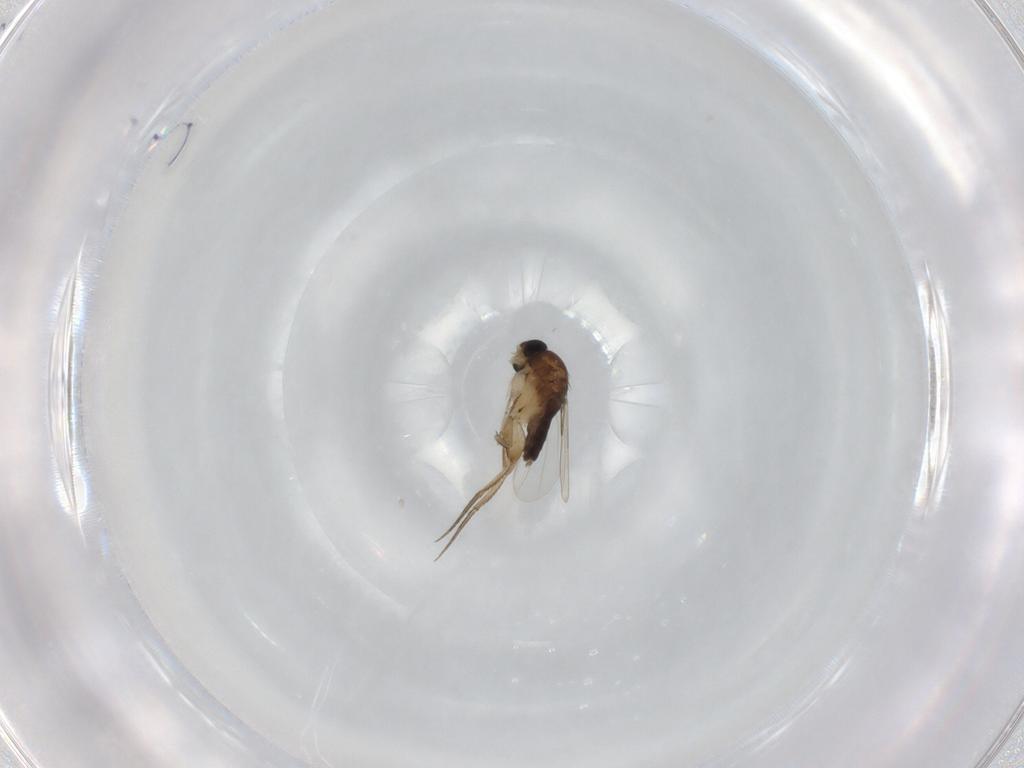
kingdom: Animalia
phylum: Arthropoda
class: Insecta
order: Diptera
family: Ceratopogonidae
